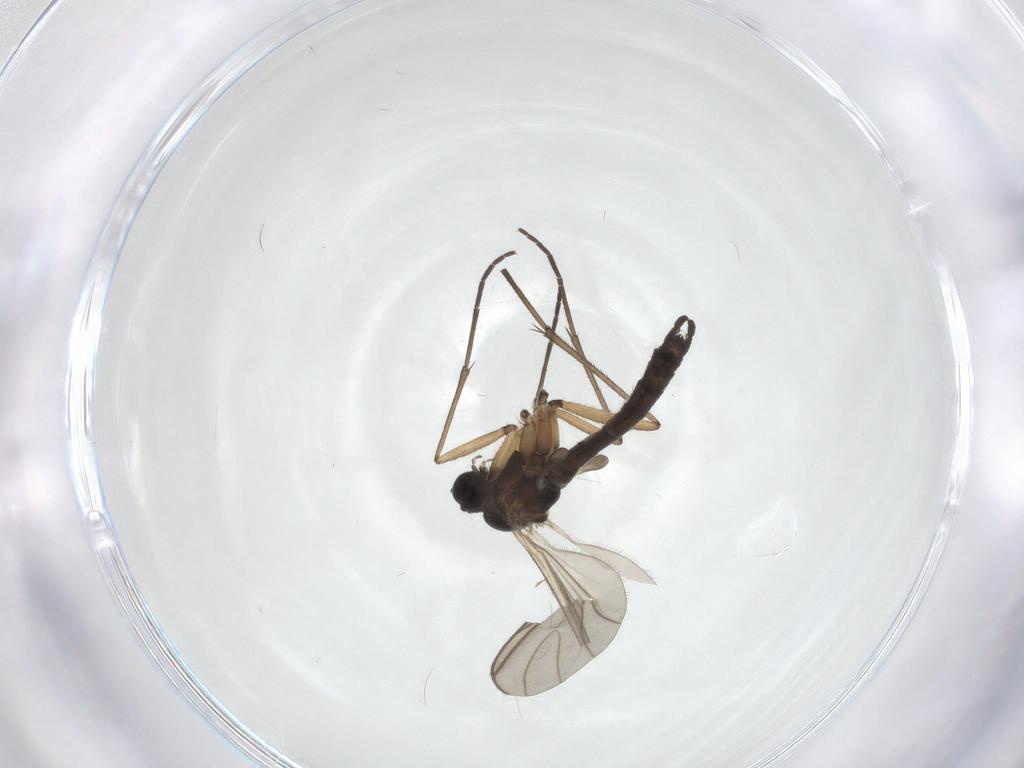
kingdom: Animalia
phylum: Arthropoda
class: Insecta
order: Diptera
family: Sciaridae
